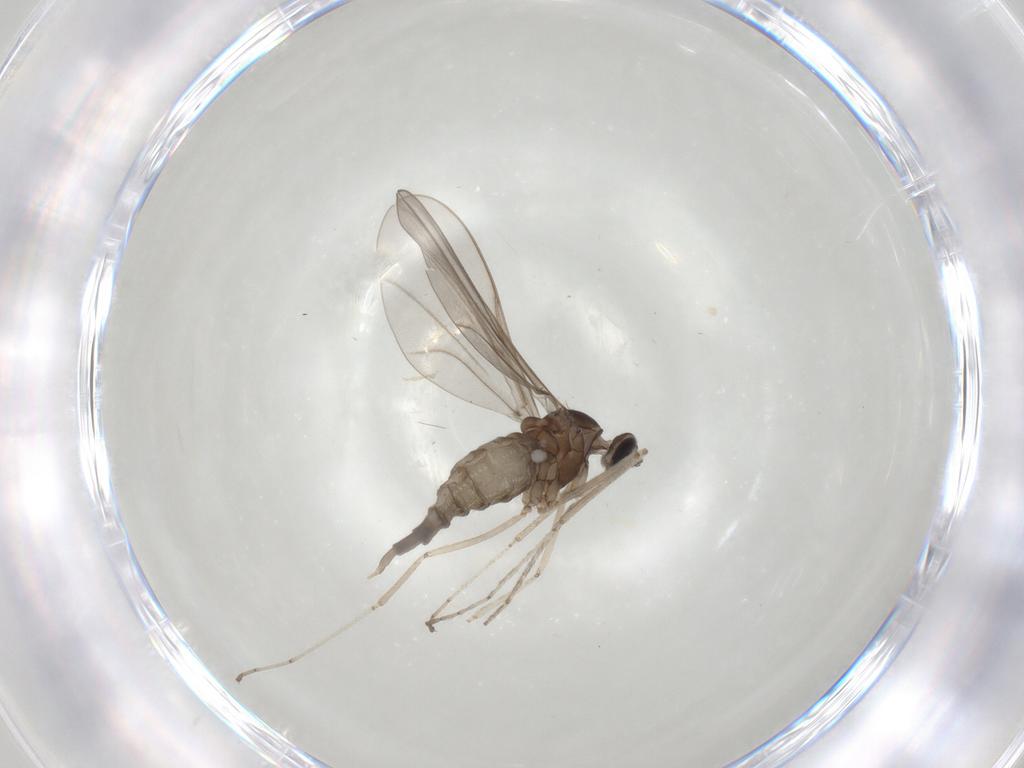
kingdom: Animalia
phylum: Arthropoda
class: Insecta
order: Diptera
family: Cecidomyiidae
